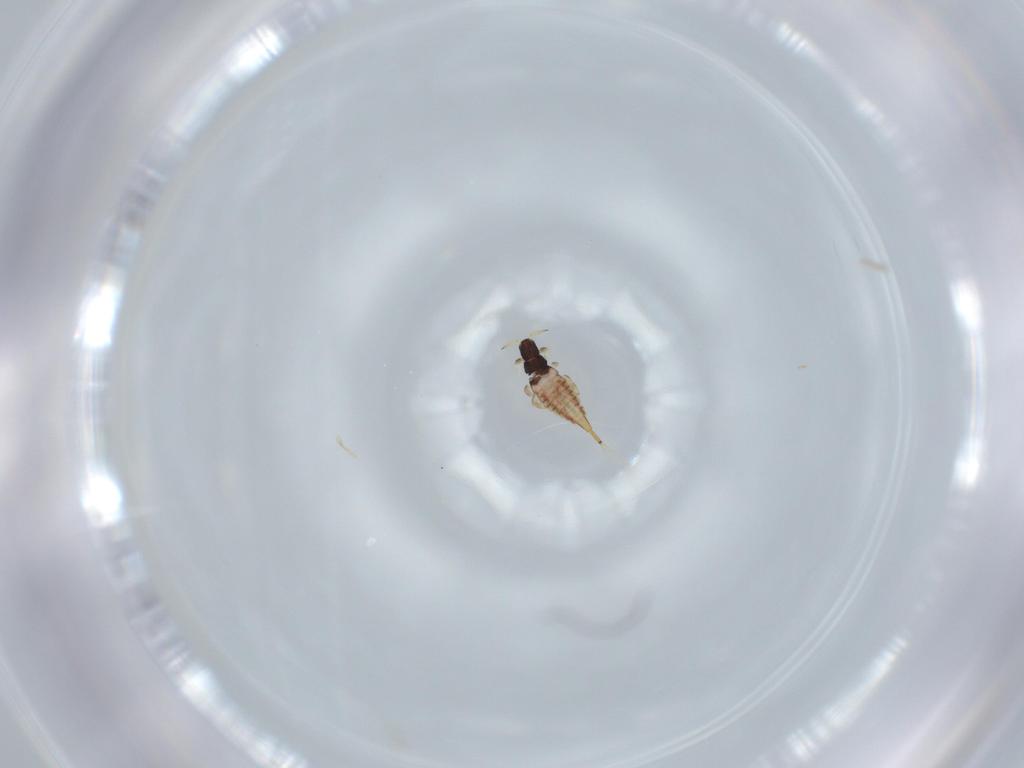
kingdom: Animalia
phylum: Arthropoda
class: Insecta
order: Thysanoptera
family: Phlaeothripidae
